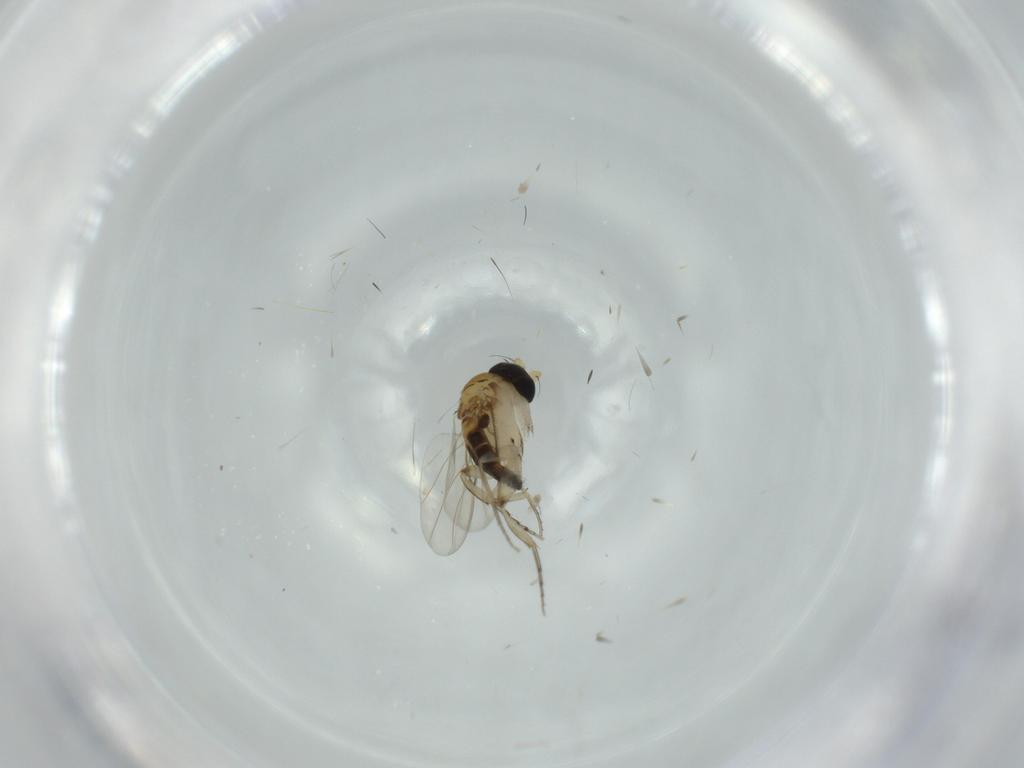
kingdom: Animalia
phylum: Arthropoda
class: Insecta
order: Diptera
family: Phoridae
